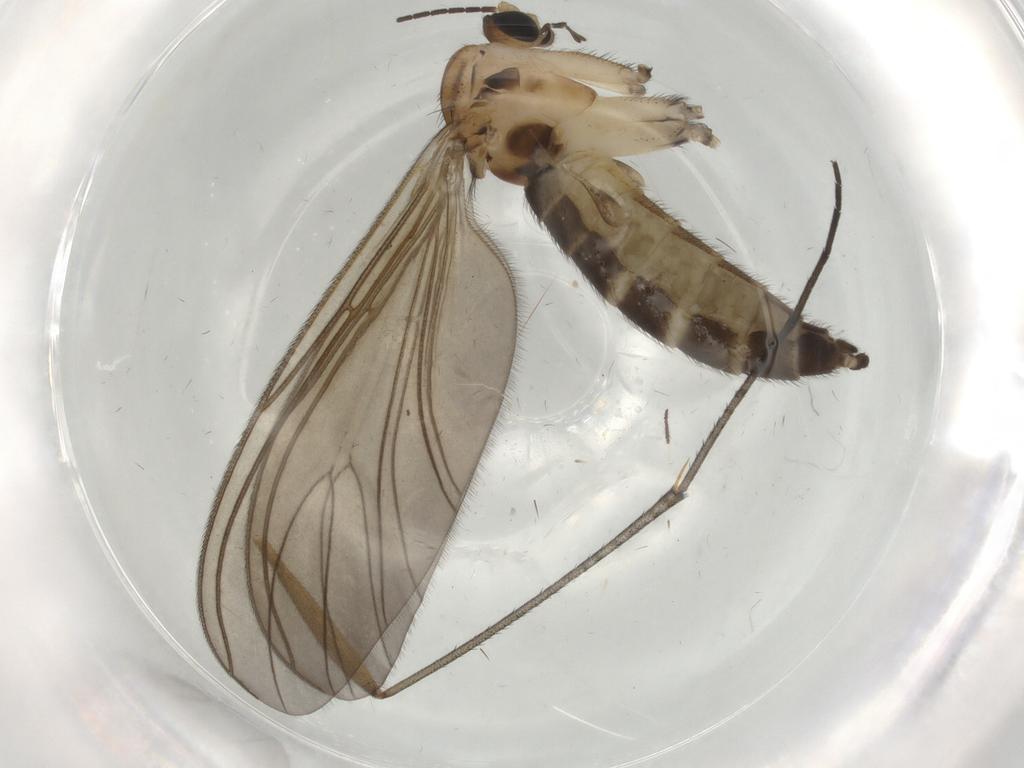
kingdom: Animalia
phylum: Arthropoda
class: Insecta
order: Diptera
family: Sciaridae
